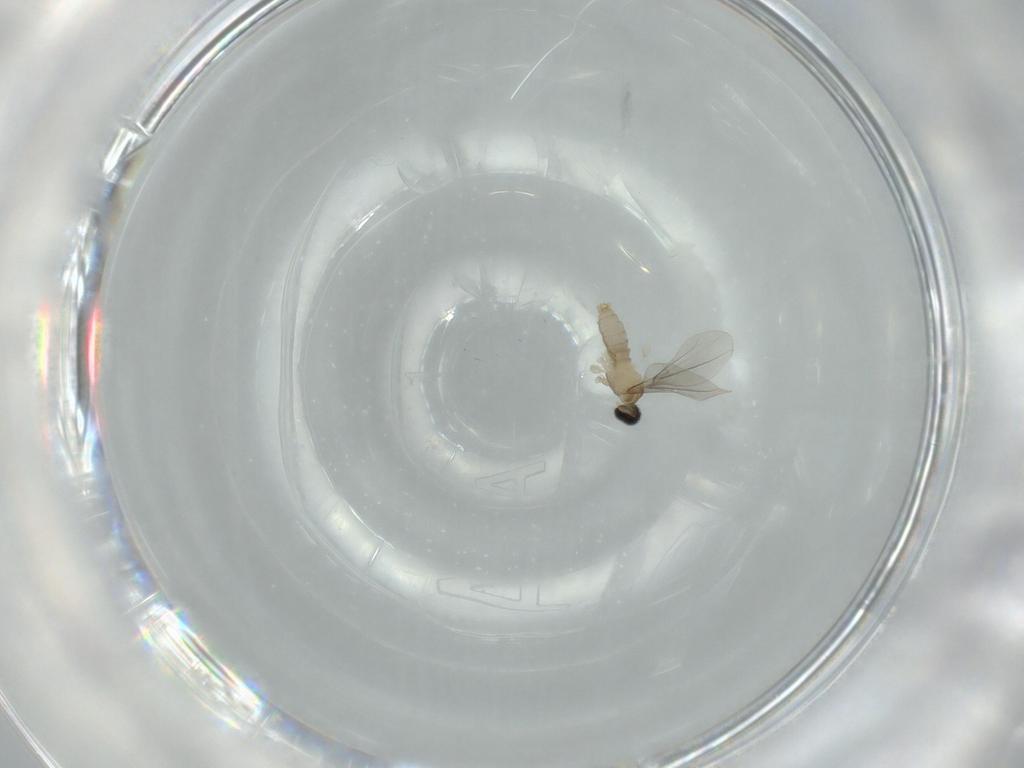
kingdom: Animalia
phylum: Arthropoda
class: Insecta
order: Diptera
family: Cecidomyiidae
